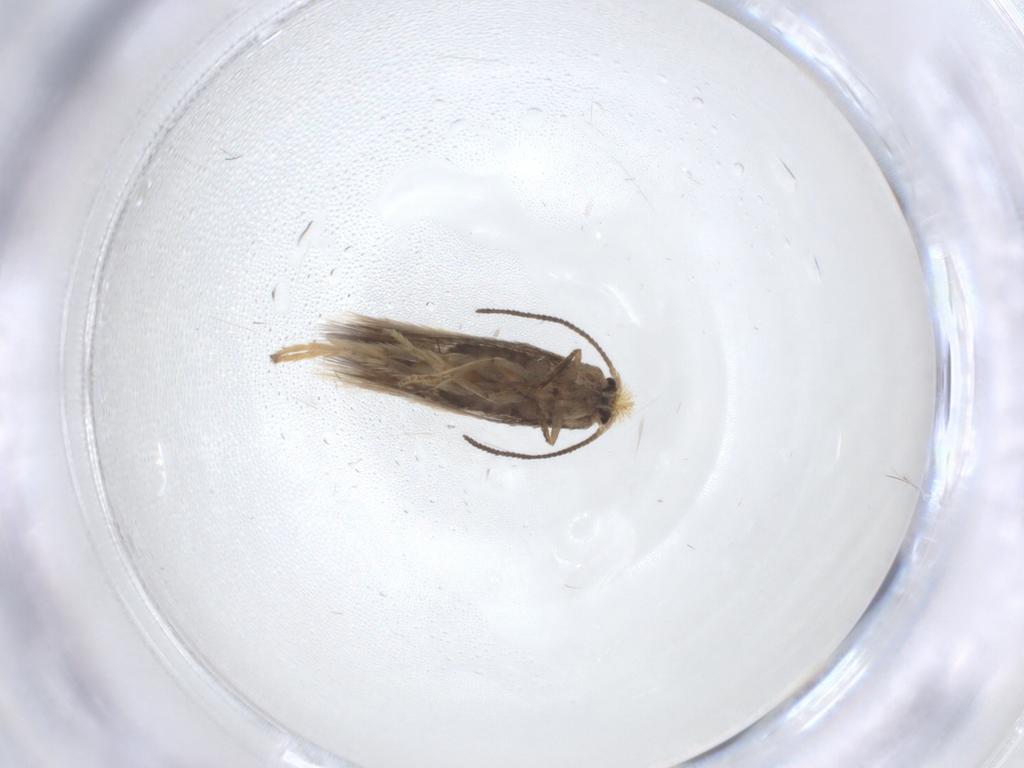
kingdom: Animalia
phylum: Arthropoda
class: Insecta
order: Lepidoptera
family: Nepticulidae
